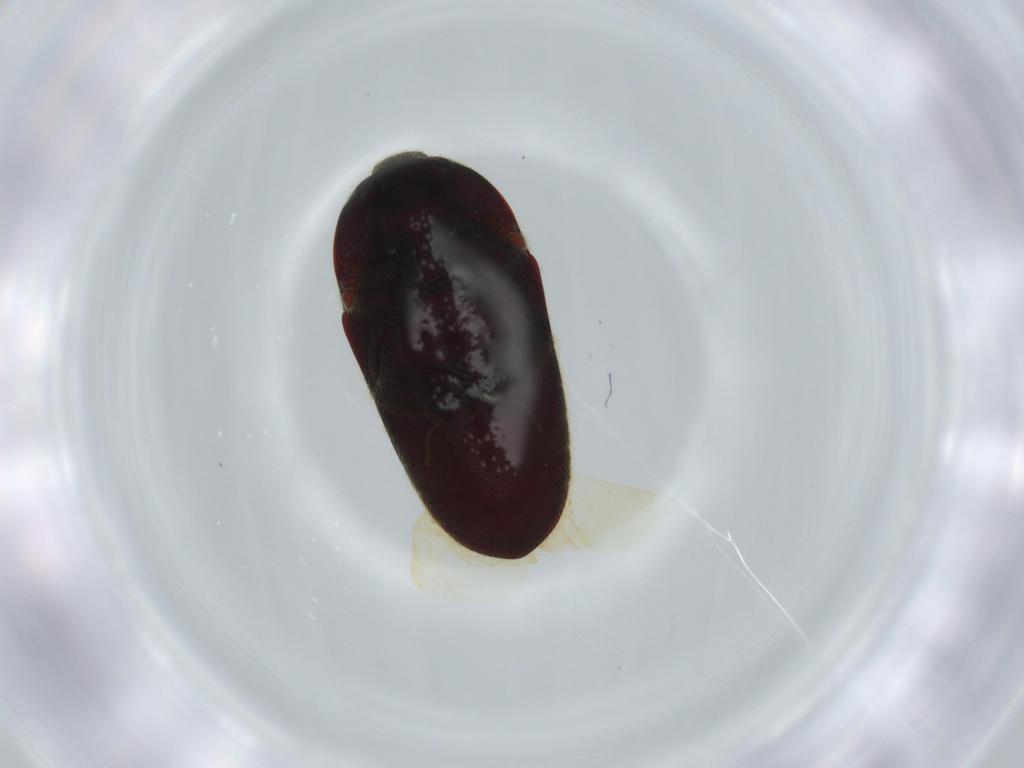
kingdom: Animalia
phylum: Arthropoda
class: Insecta
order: Coleoptera
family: Throscidae
